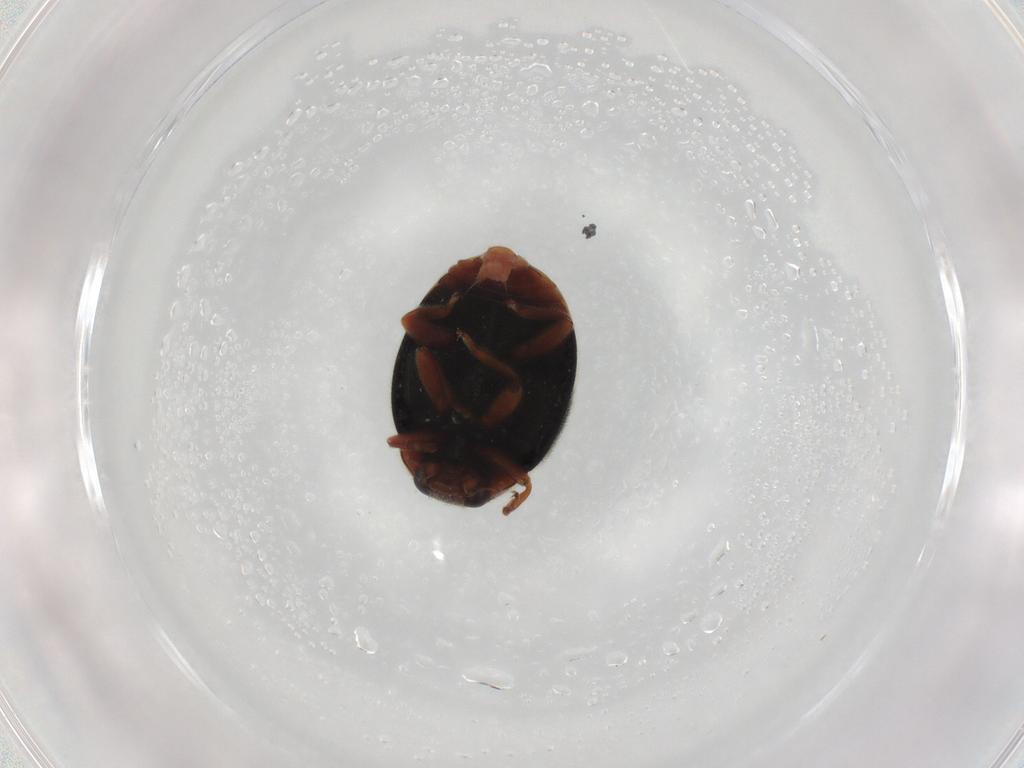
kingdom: Animalia
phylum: Arthropoda
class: Insecta
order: Coleoptera
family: Coccinellidae
